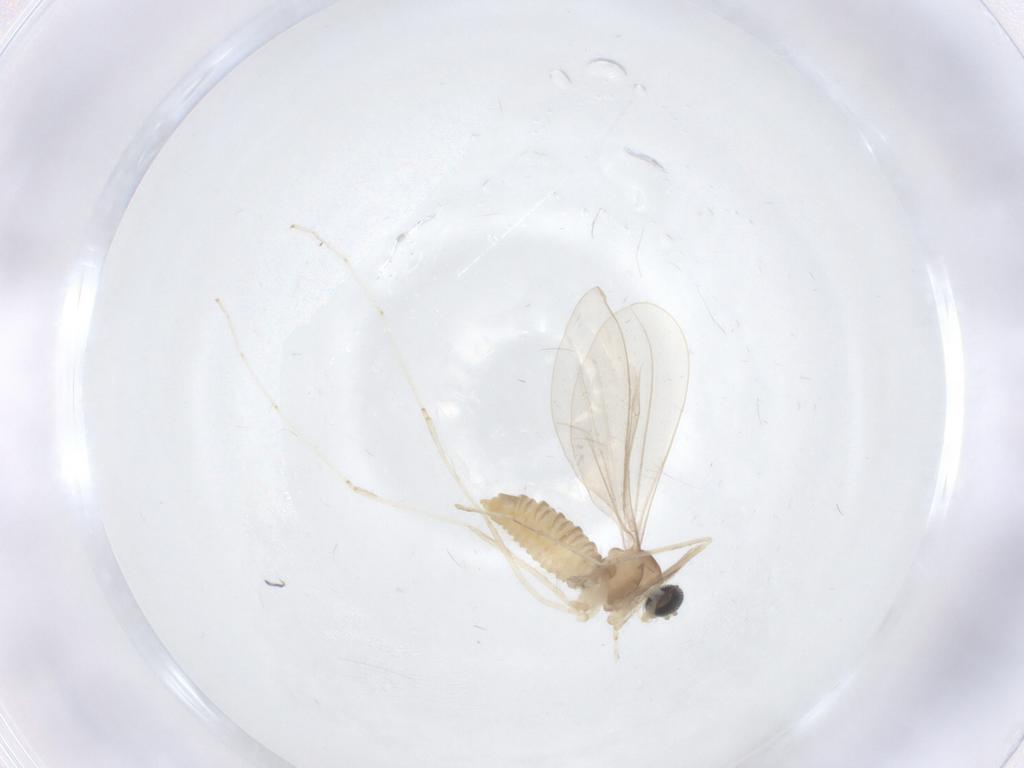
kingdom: Animalia
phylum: Arthropoda
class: Insecta
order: Diptera
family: Cecidomyiidae
